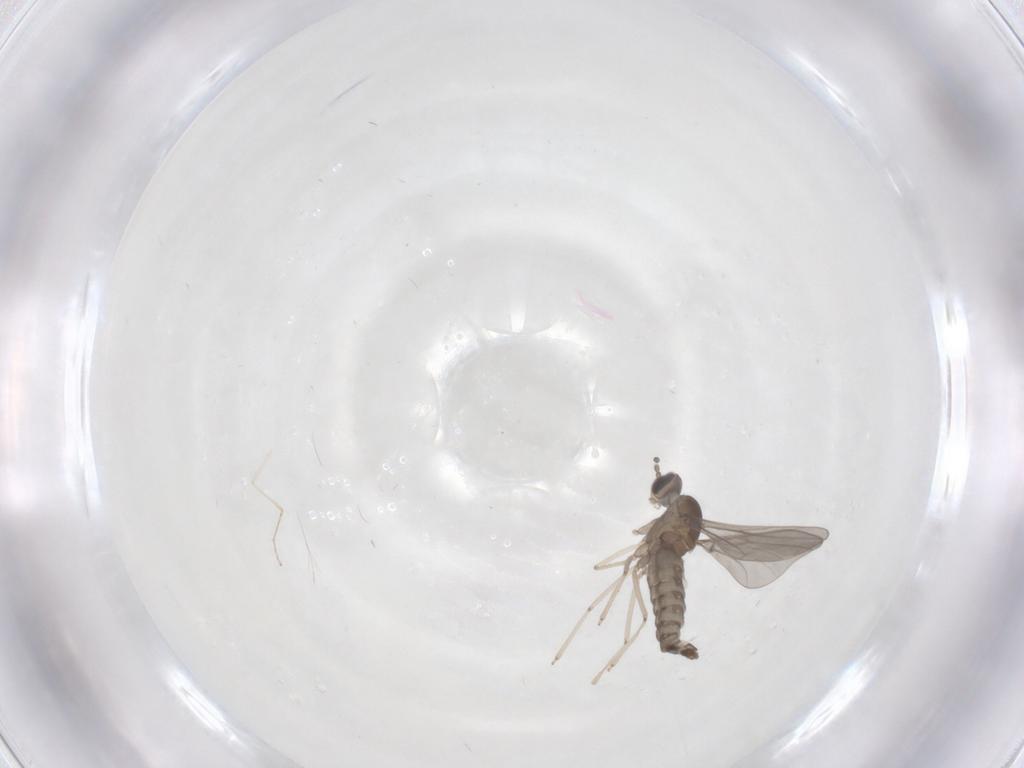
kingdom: Animalia
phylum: Arthropoda
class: Insecta
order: Diptera
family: Cecidomyiidae
